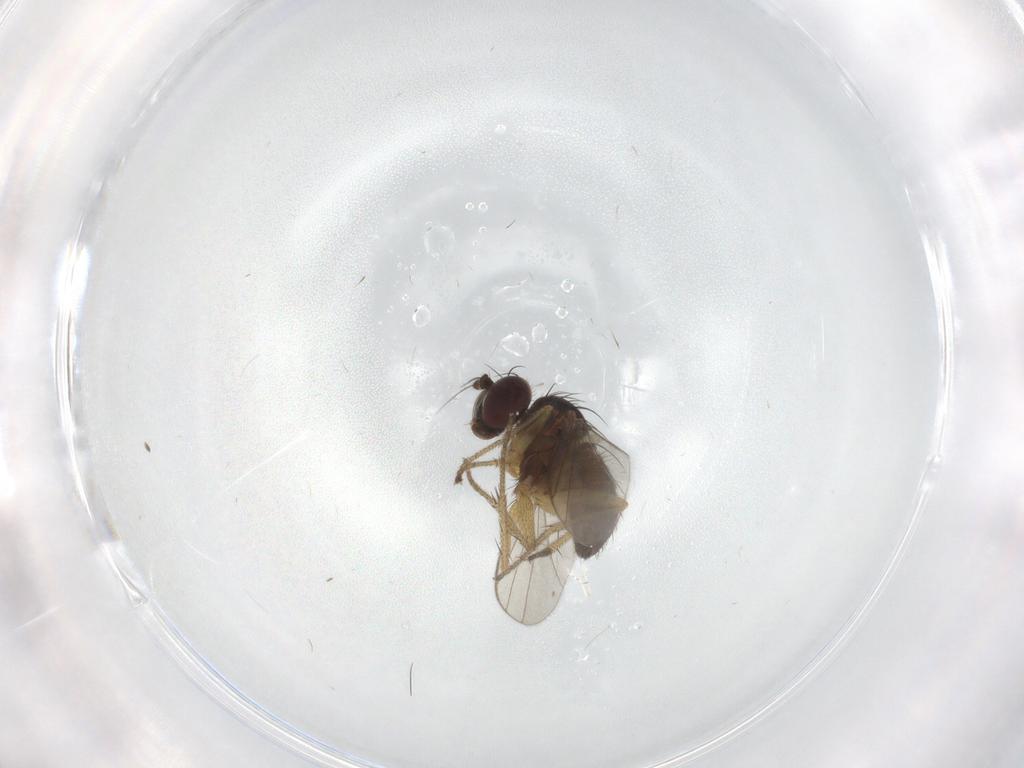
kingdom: Animalia
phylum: Arthropoda
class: Insecta
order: Diptera
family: Dolichopodidae
